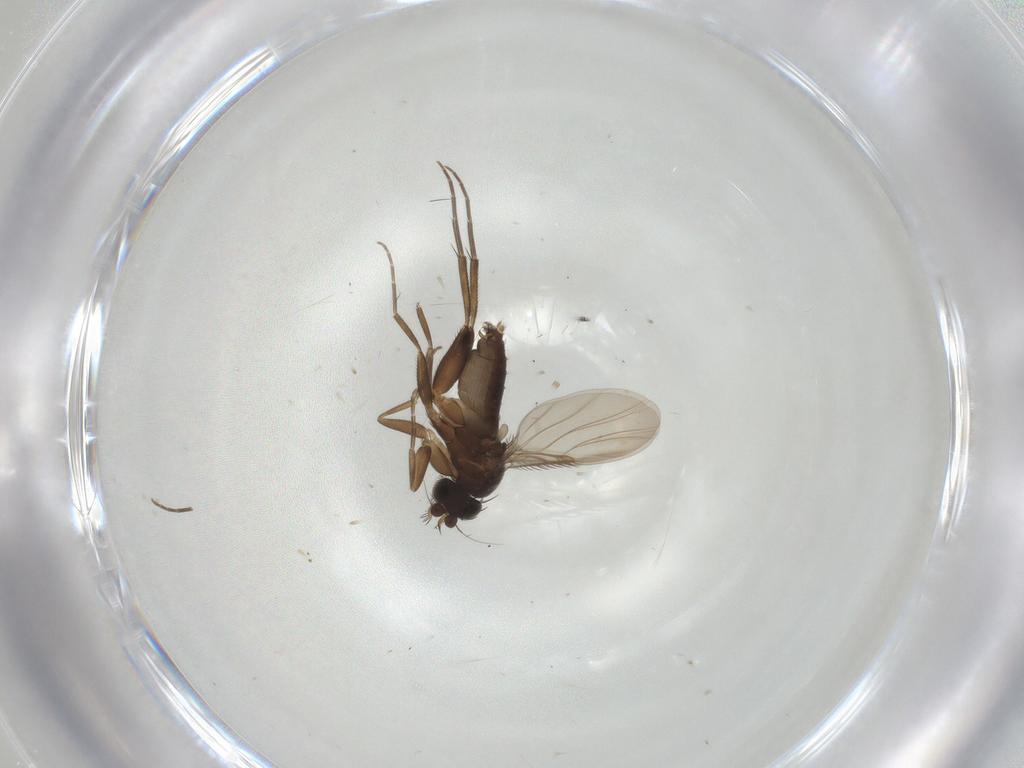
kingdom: Animalia
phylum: Arthropoda
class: Insecta
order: Diptera
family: Phoridae
